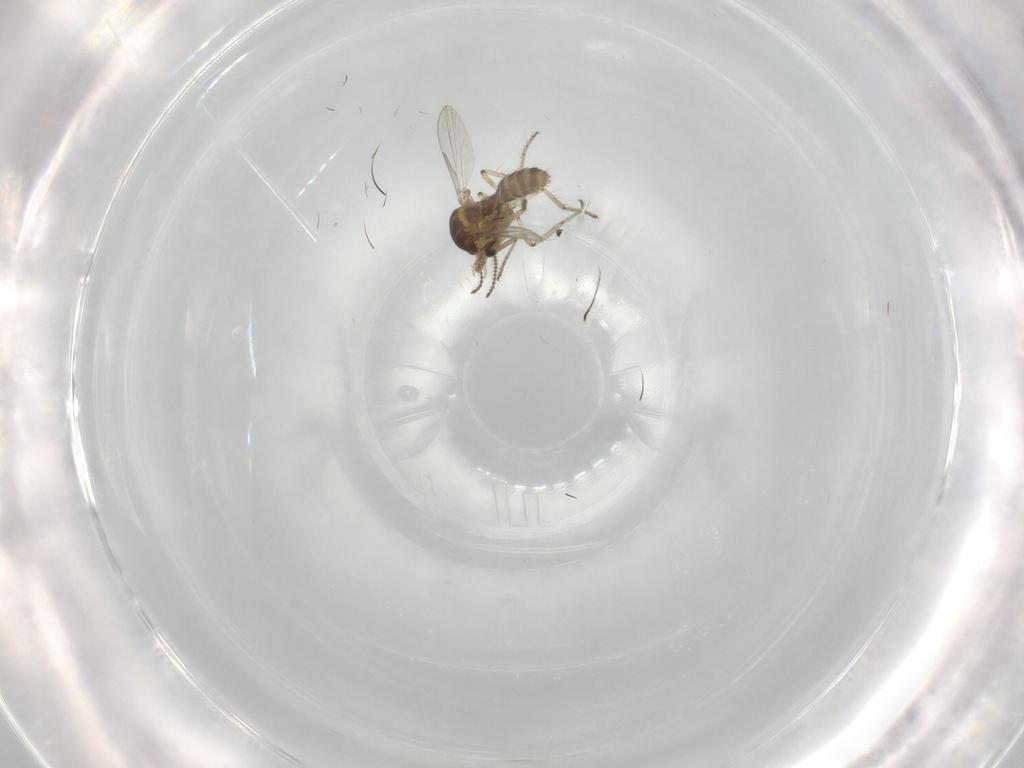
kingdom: Animalia
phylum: Arthropoda
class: Insecta
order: Diptera
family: Ceratopogonidae
